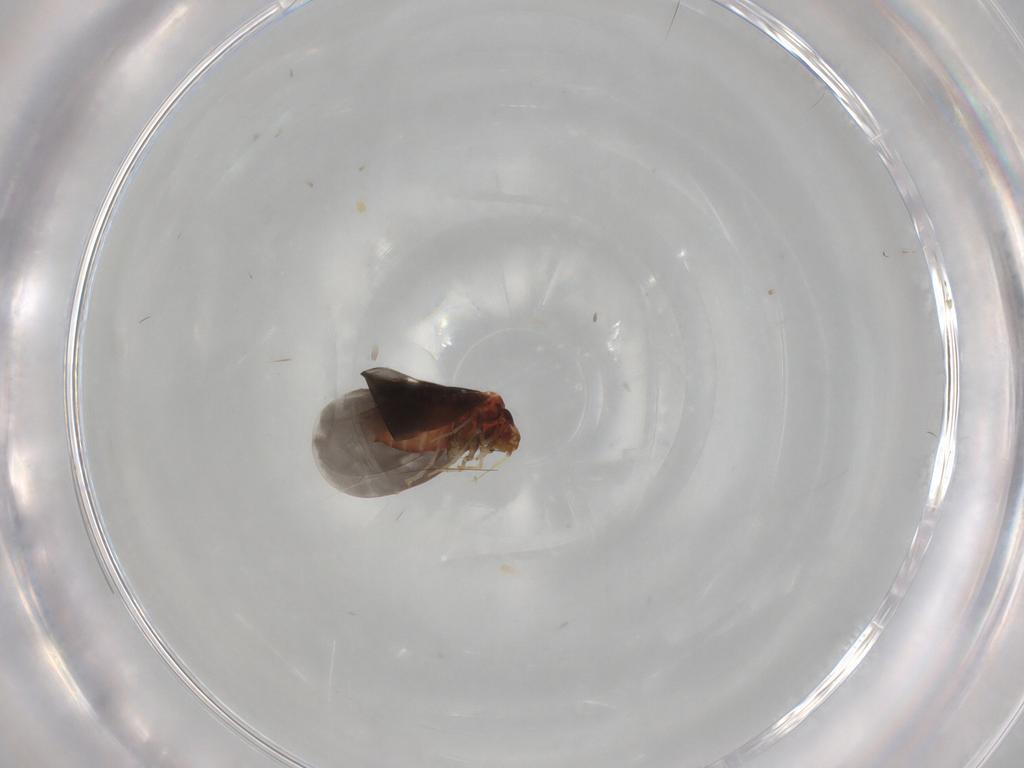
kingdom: Animalia
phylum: Arthropoda
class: Insecta
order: Hemiptera
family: Aleyrodidae
